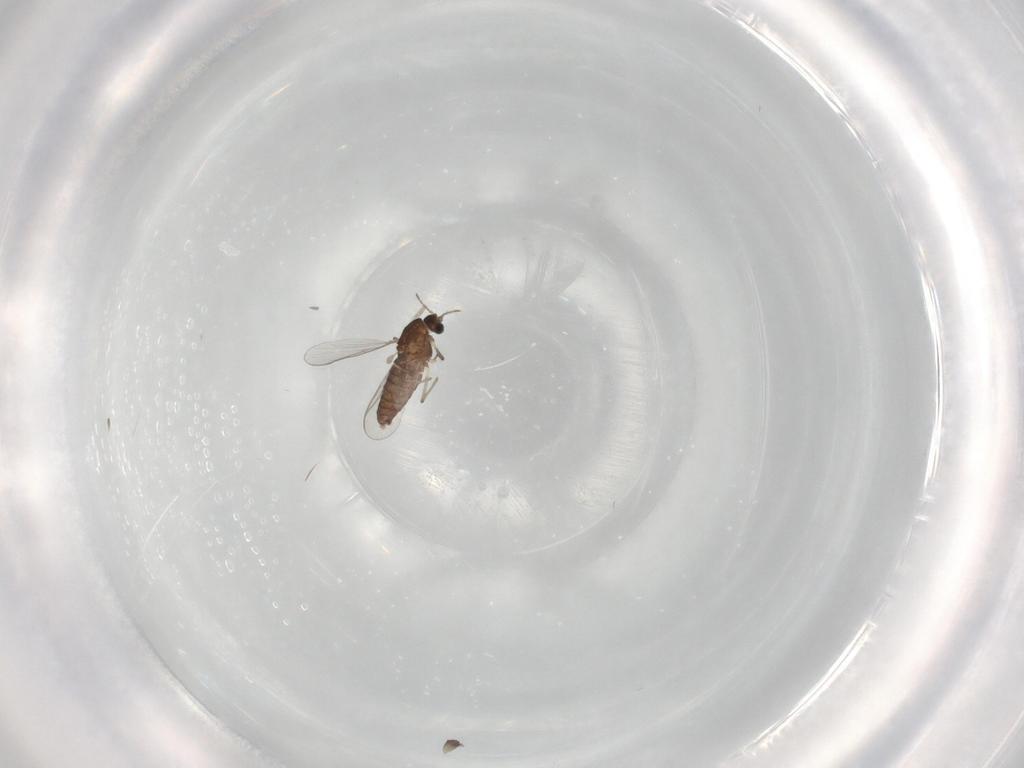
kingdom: Animalia
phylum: Arthropoda
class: Insecta
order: Diptera
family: Chironomidae
